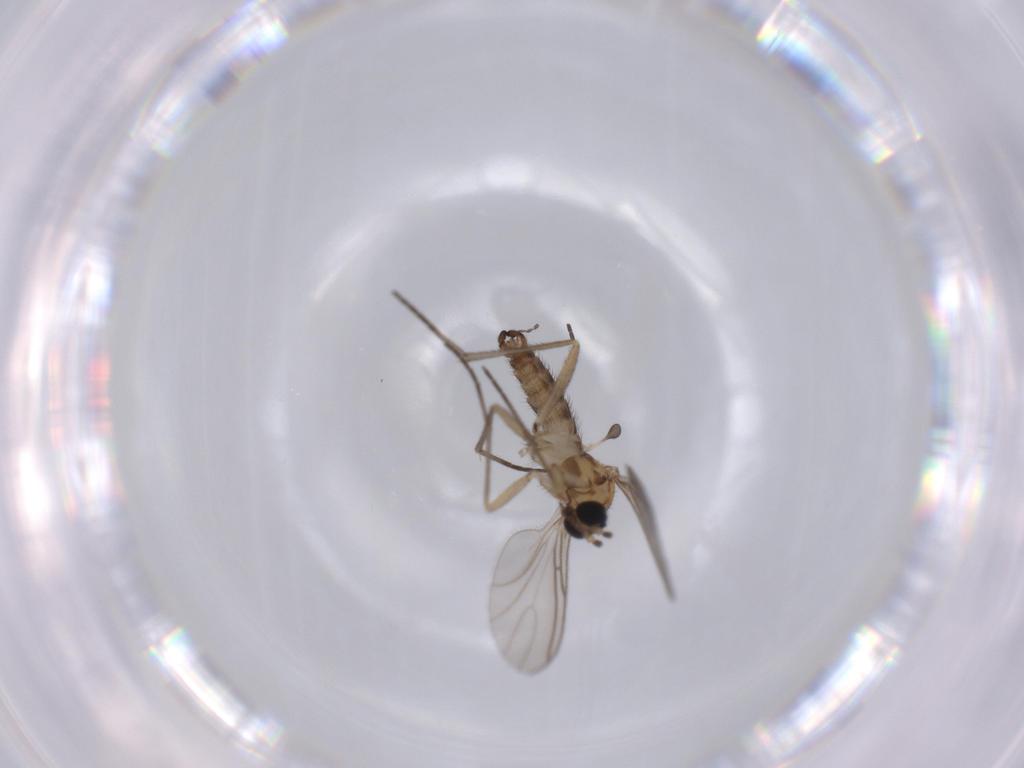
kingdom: Animalia
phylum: Arthropoda
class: Insecta
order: Diptera
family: Sciaridae
